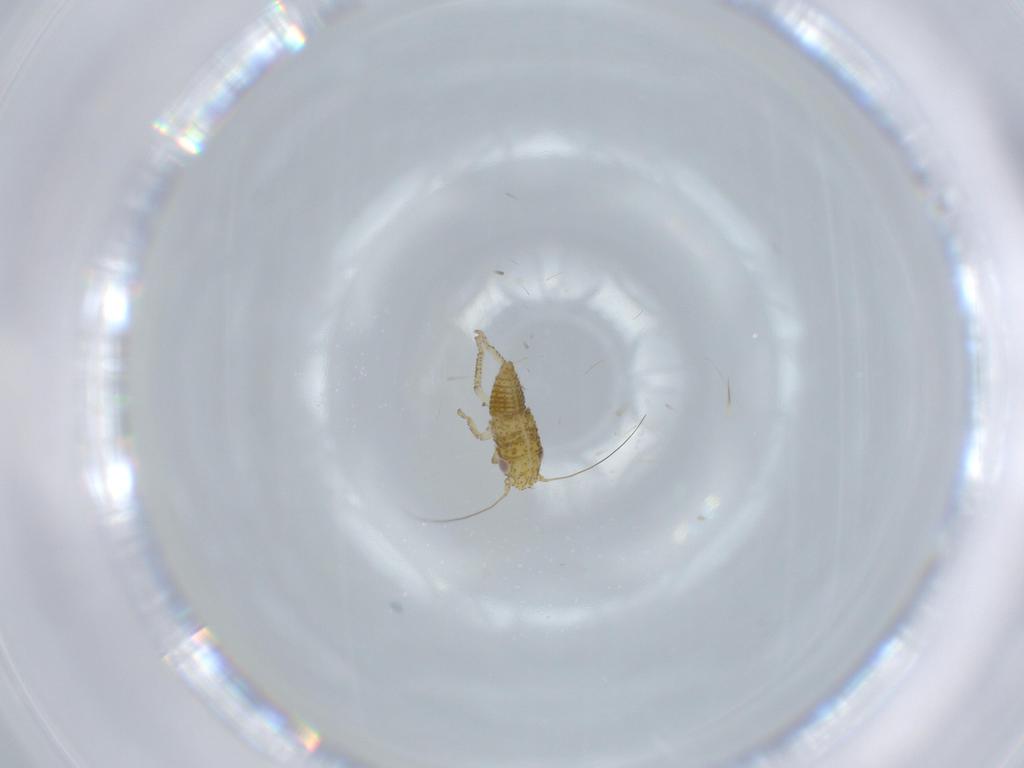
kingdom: Animalia
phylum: Arthropoda
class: Insecta
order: Hemiptera
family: Cicadellidae
